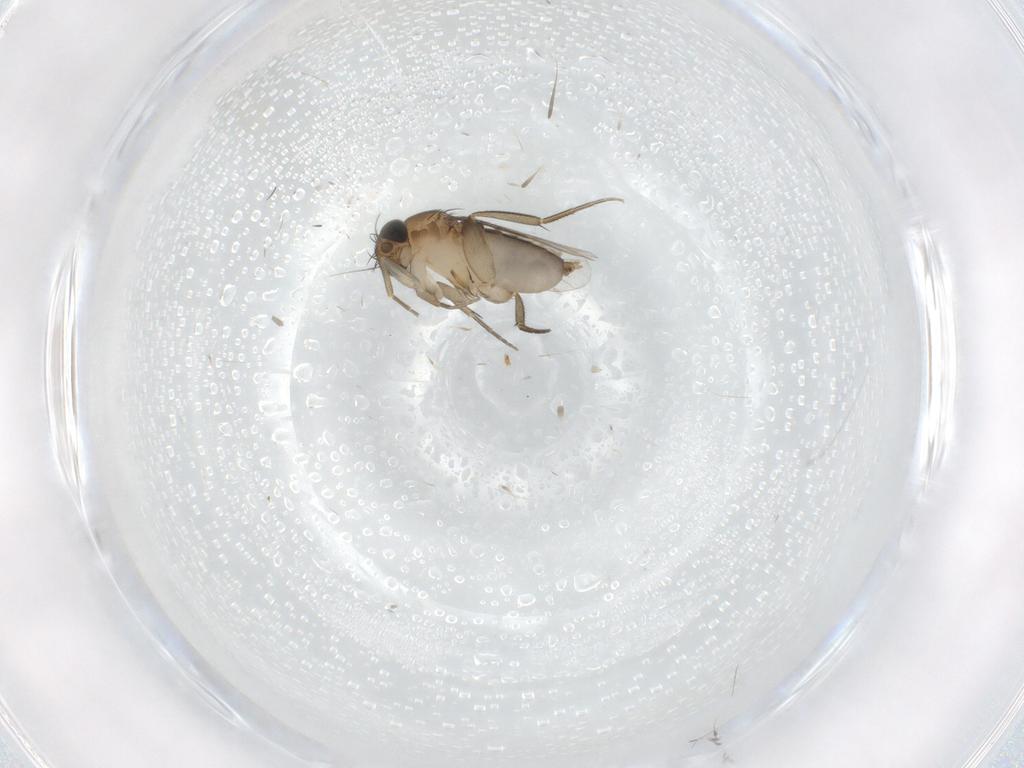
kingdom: Animalia
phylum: Arthropoda
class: Insecta
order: Diptera
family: Phoridae
